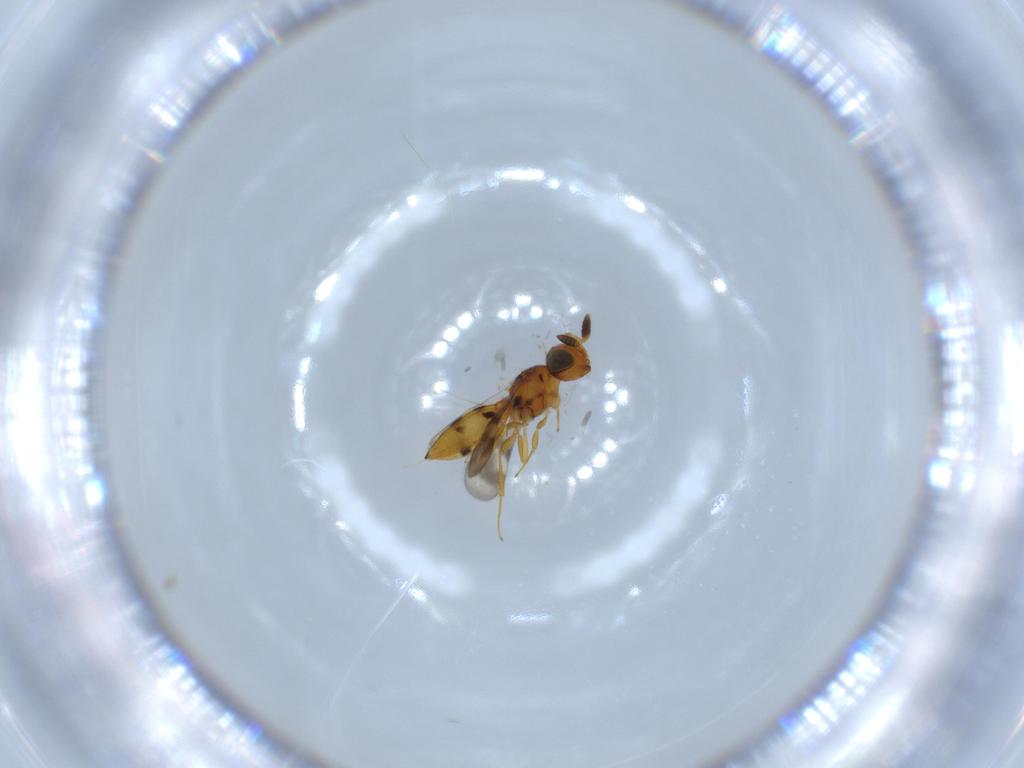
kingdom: Animalia
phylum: Arthropoda
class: Insecta
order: Hymenoptera
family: Scelionidae
